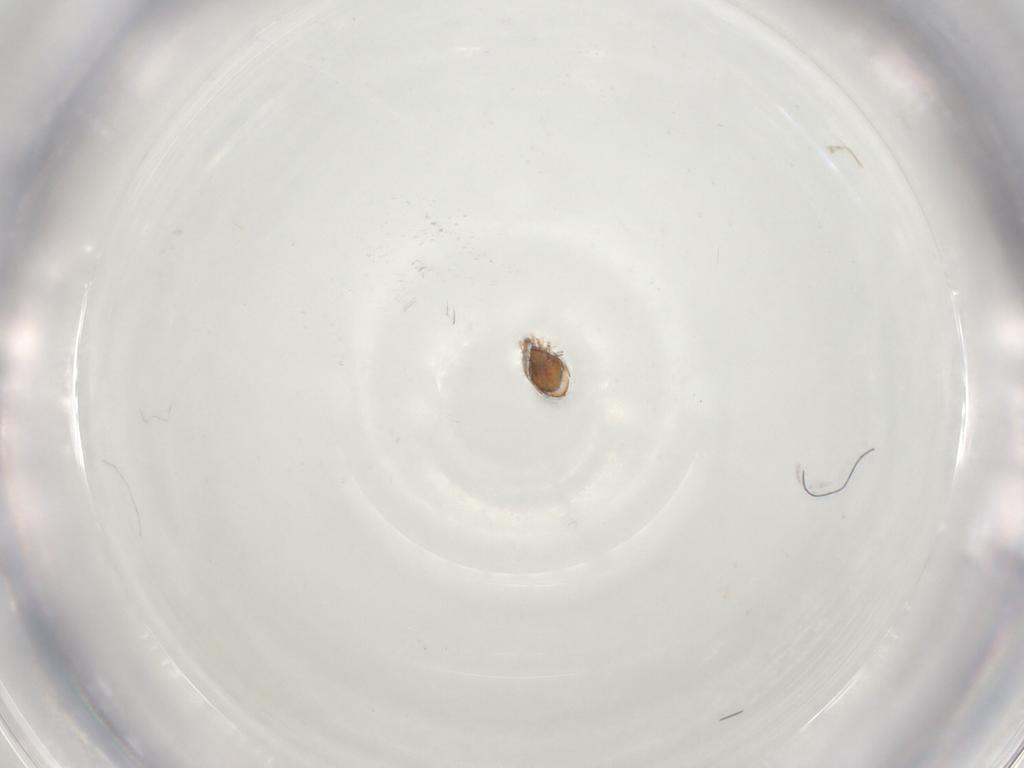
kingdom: Animalia
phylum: Arthropoda
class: Arachnida
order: Sarcoptiformes
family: Oribatulidae
